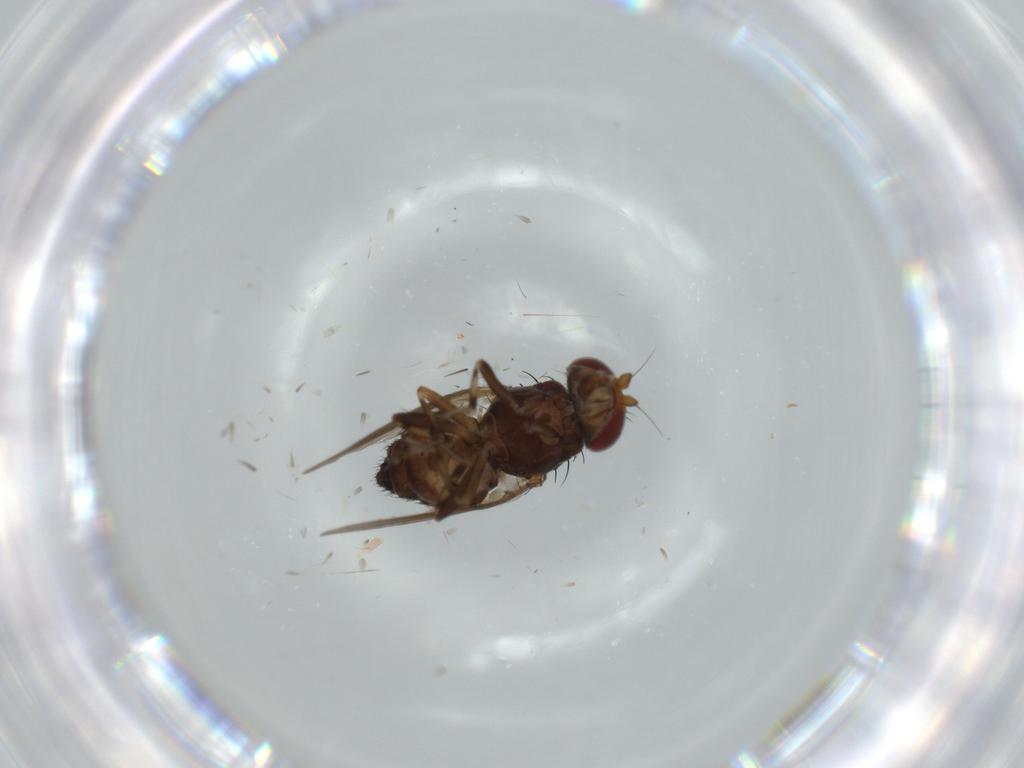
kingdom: Animalia
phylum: Arthropoda
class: Insecta
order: Diptera
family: Heleomyzidae
